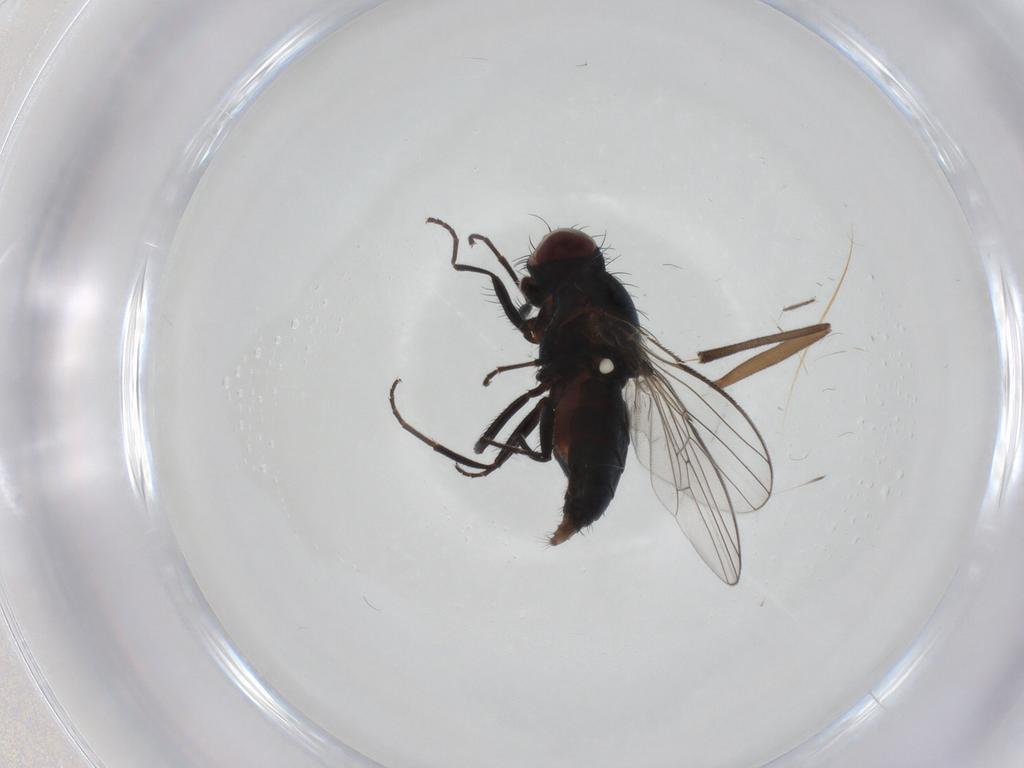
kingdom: Animalia
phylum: Arthropoda
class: Insecta
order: Diptera
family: Carnidae
